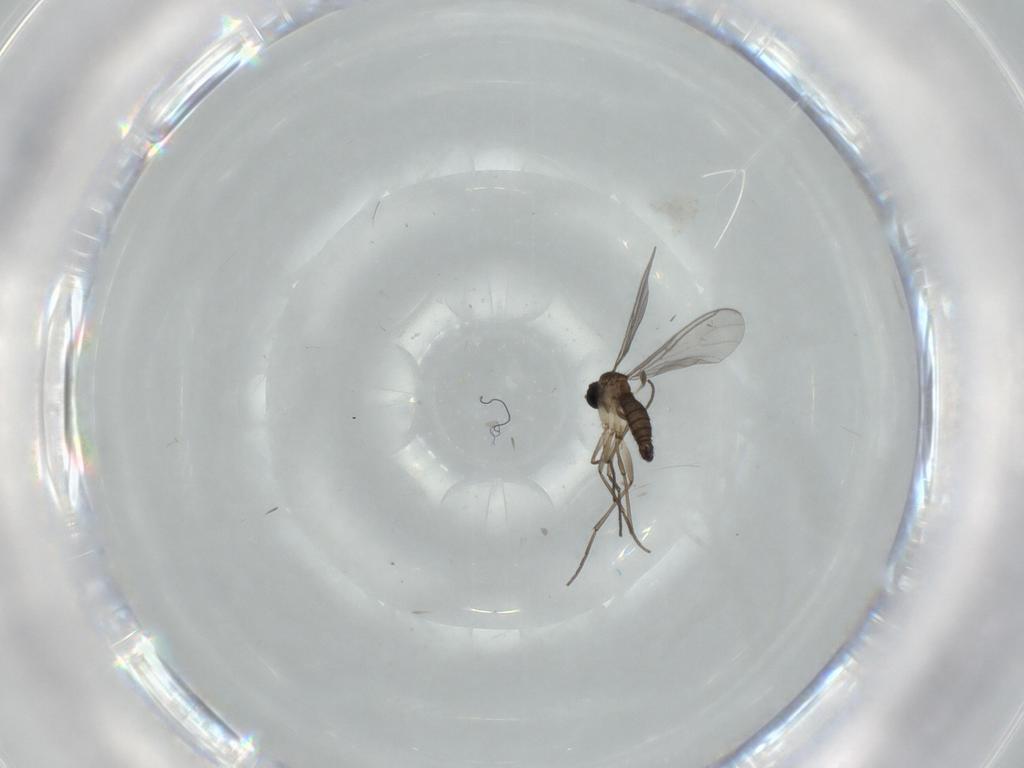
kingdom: Animalia
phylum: Arthropoda
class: Insecta
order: Diptera
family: Sciaridae
